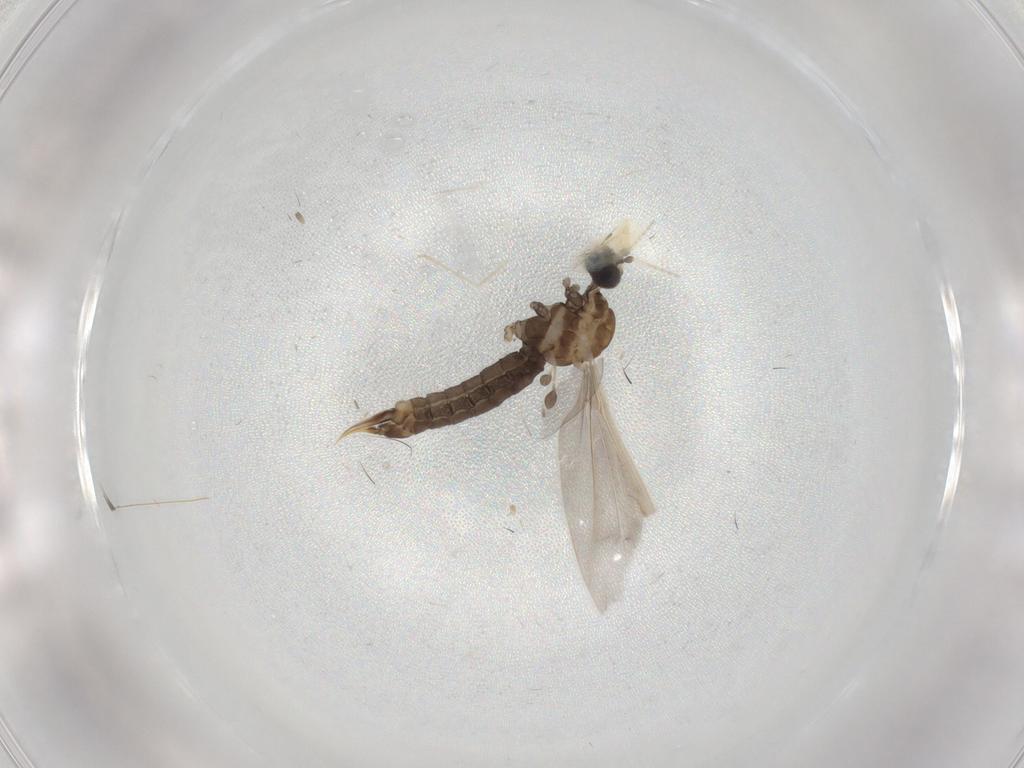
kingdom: Animalia
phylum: Arthropoda
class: Insecta
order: Diptera
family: Limoniidae
